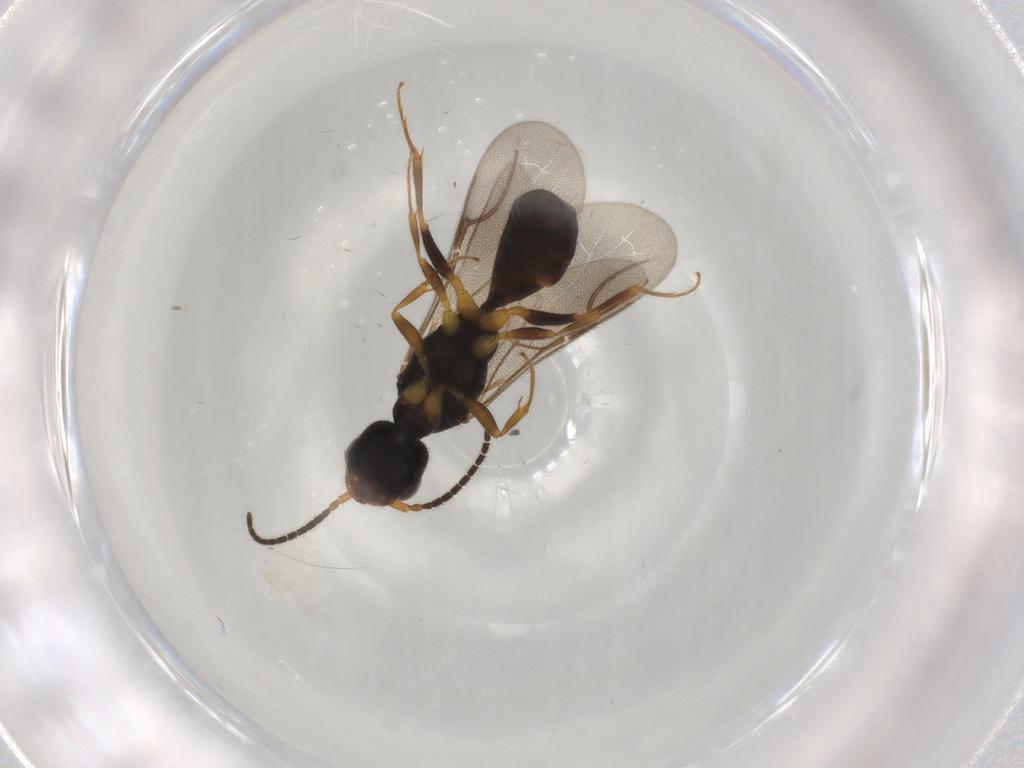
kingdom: Animalia
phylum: Arthropoda
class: Insecta
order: Hymenoptera
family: Bethylidae
